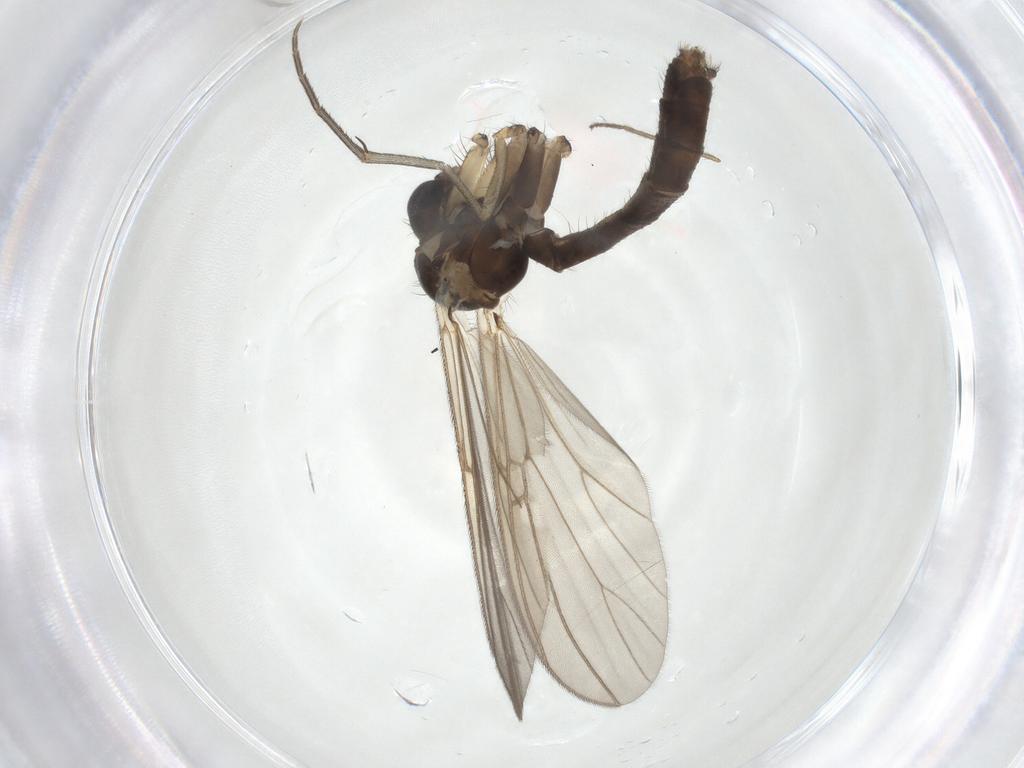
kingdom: Animalia
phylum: Arthropoda
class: Insecta
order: Diptera
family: Mycetophilidae
